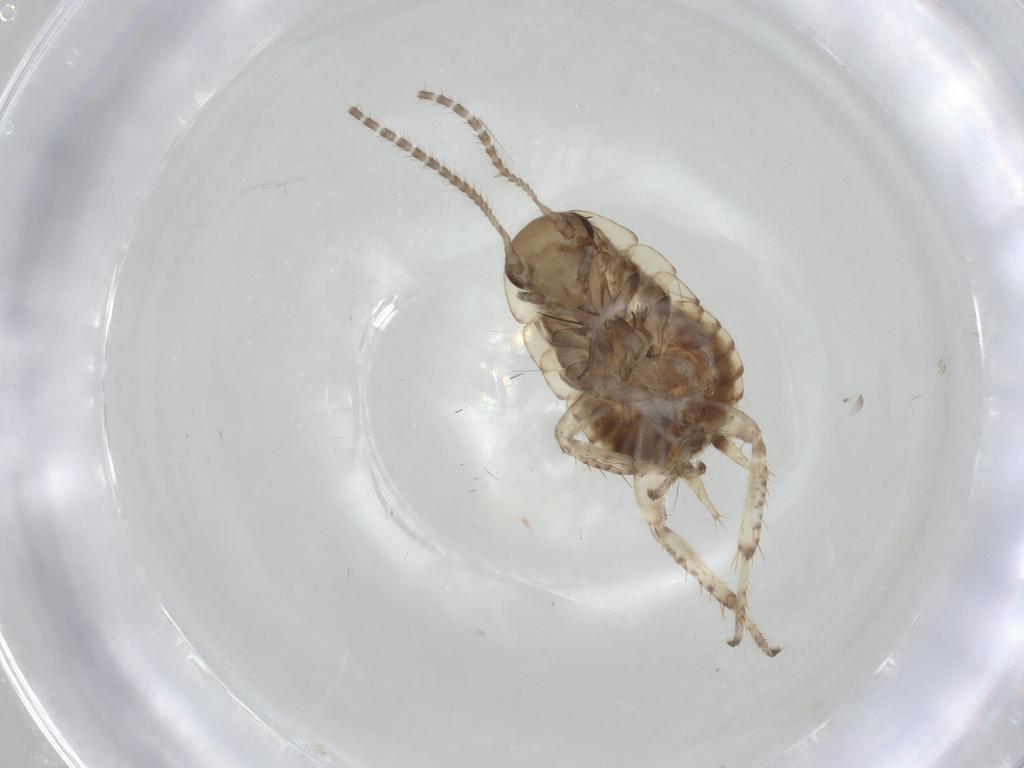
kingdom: Animalia
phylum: Arthropoda
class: Insecta
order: Blattodea
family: Blaberidae
